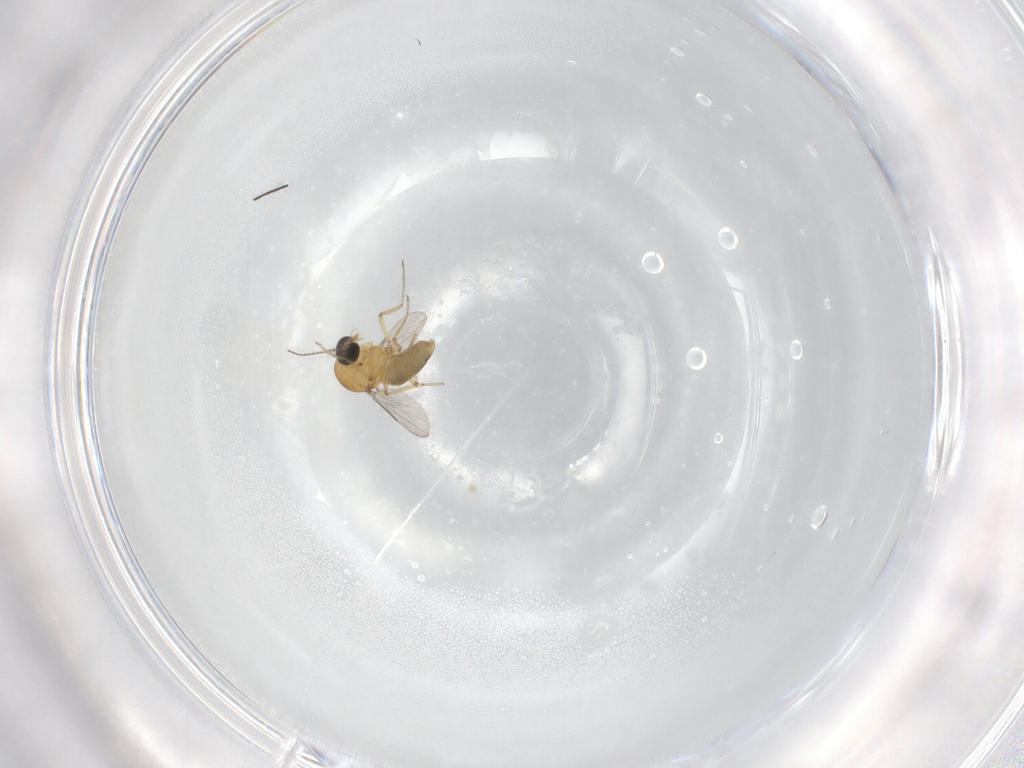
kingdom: Animalia
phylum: Arthropoda
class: Insecta
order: Diptera
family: Ceratopogonidae
